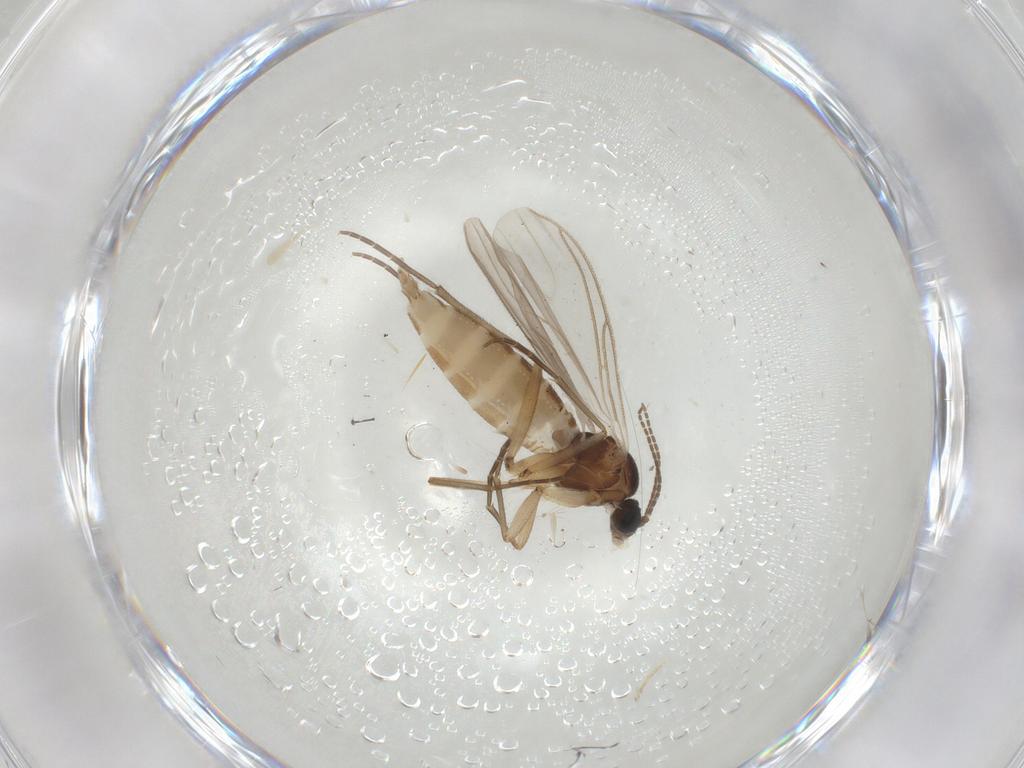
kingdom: Animalia
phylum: Arthropoda
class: Insecta
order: Diptera
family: Sciaridae
